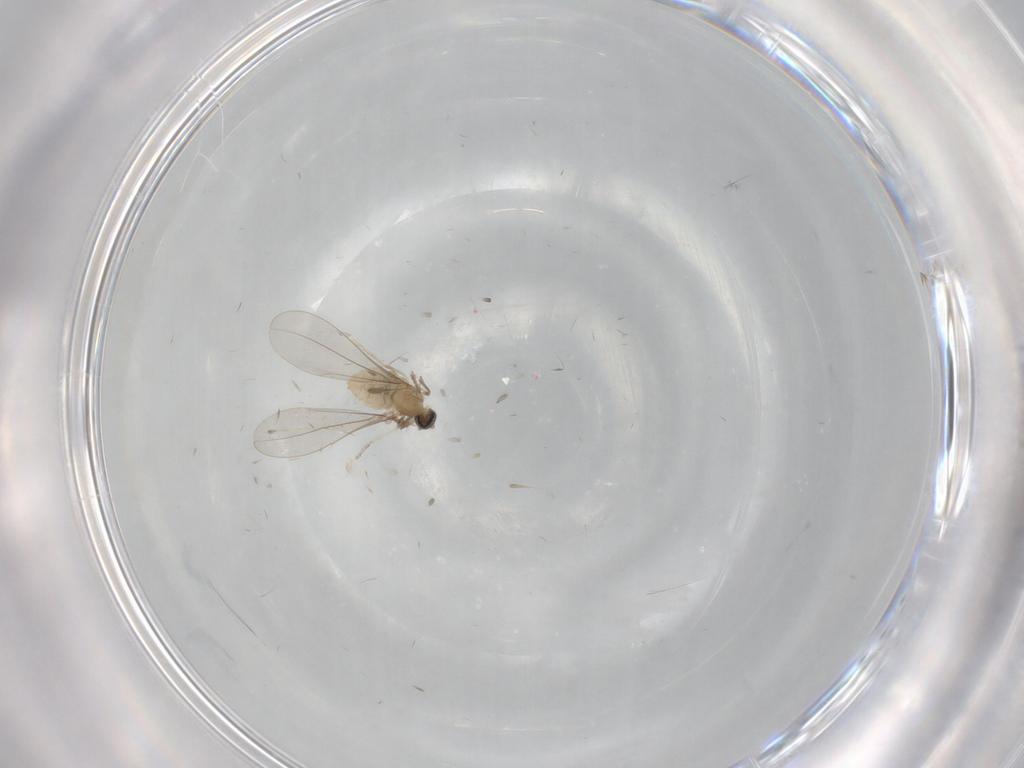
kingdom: Animalia
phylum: Arthropoda
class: Insecta
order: Diptera
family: Cecidomyiidae
